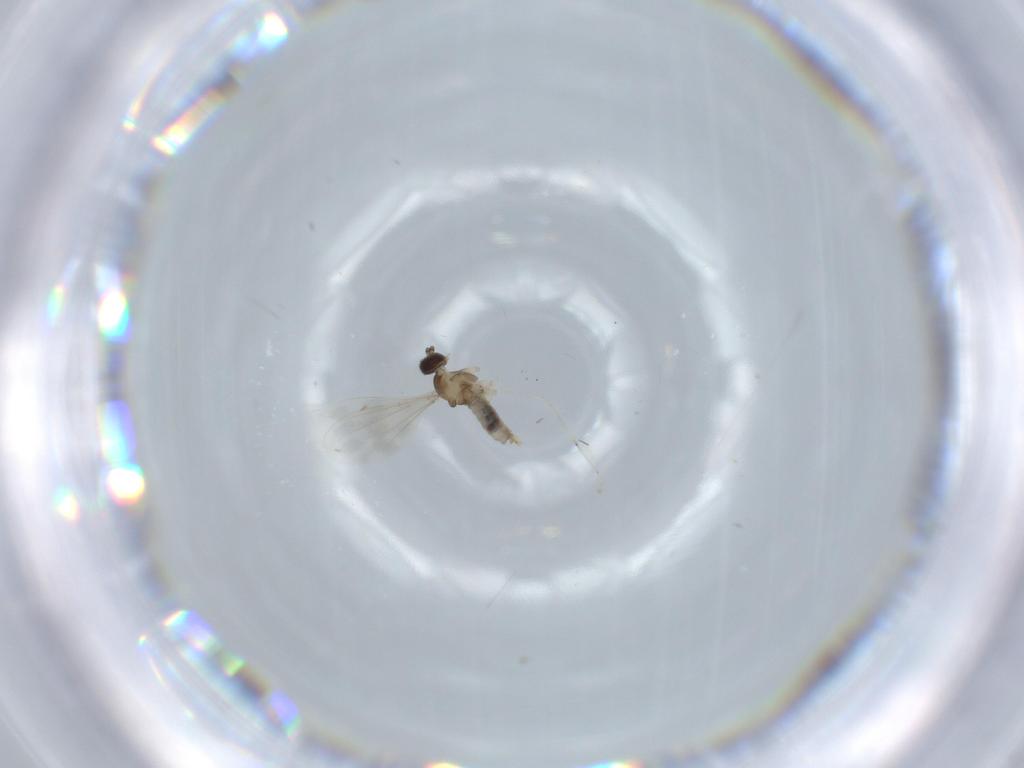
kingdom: Animalia
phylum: Arthropoda
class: Insecta
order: Diptera
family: Cecidomyiidae
